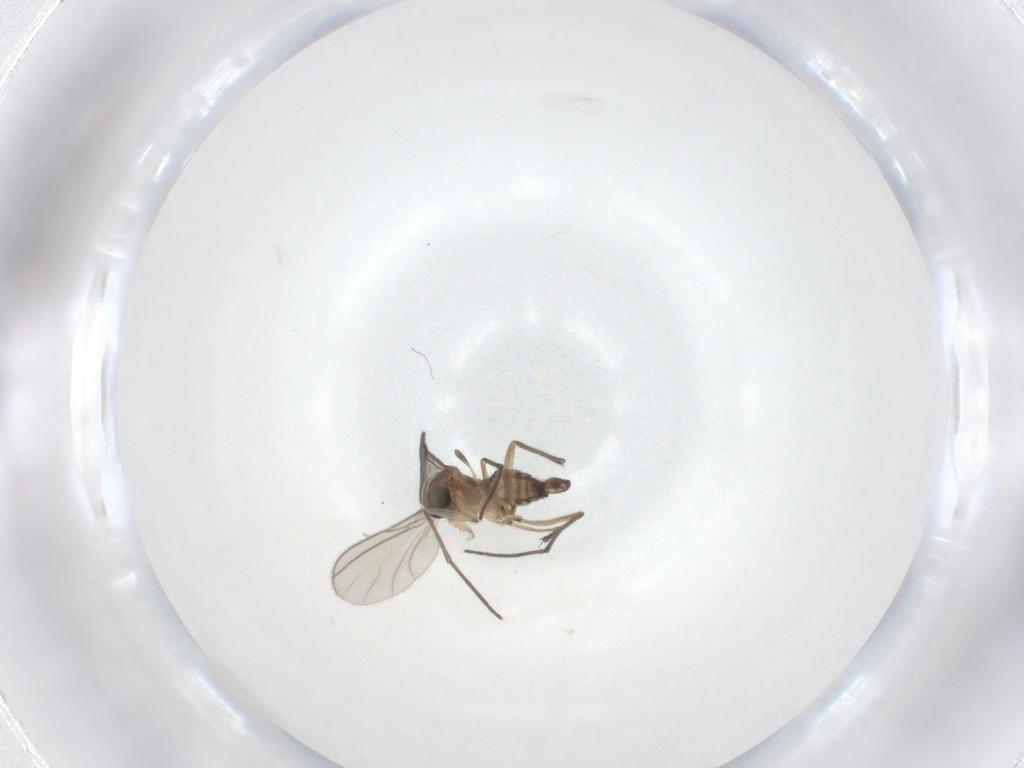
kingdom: Animalia
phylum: Arthropoda
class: Insecta
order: Diptera
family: Sciaridae
